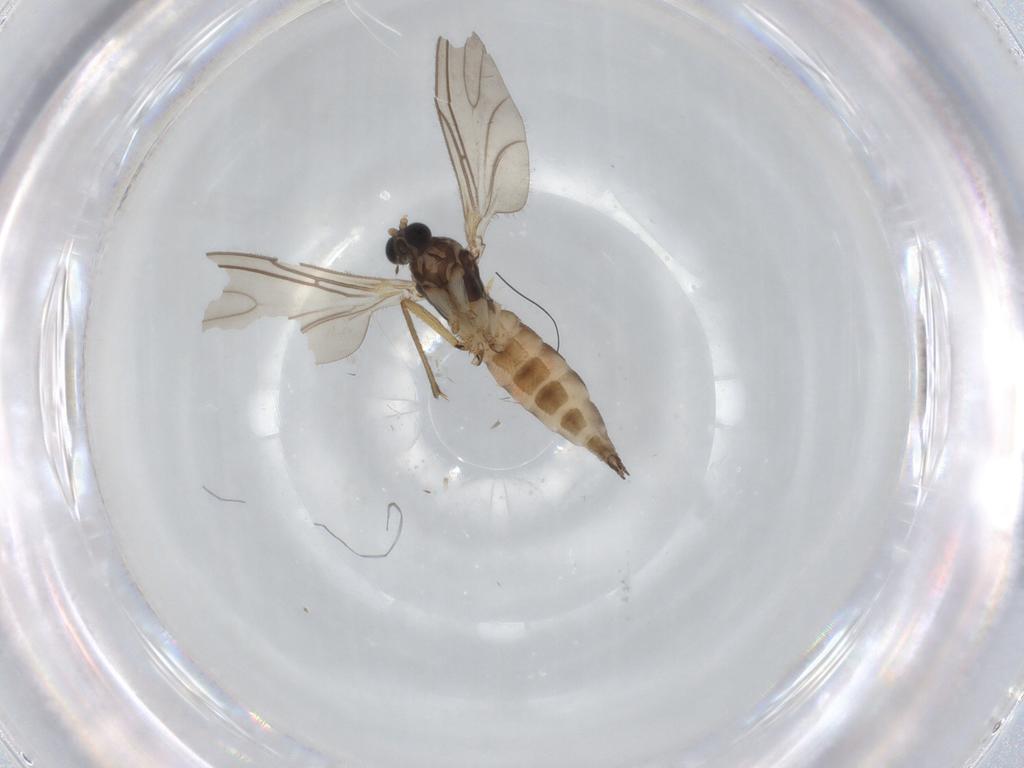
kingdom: Animalia
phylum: Arthropoda
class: Insecta
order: Diptera
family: Sciaridae
